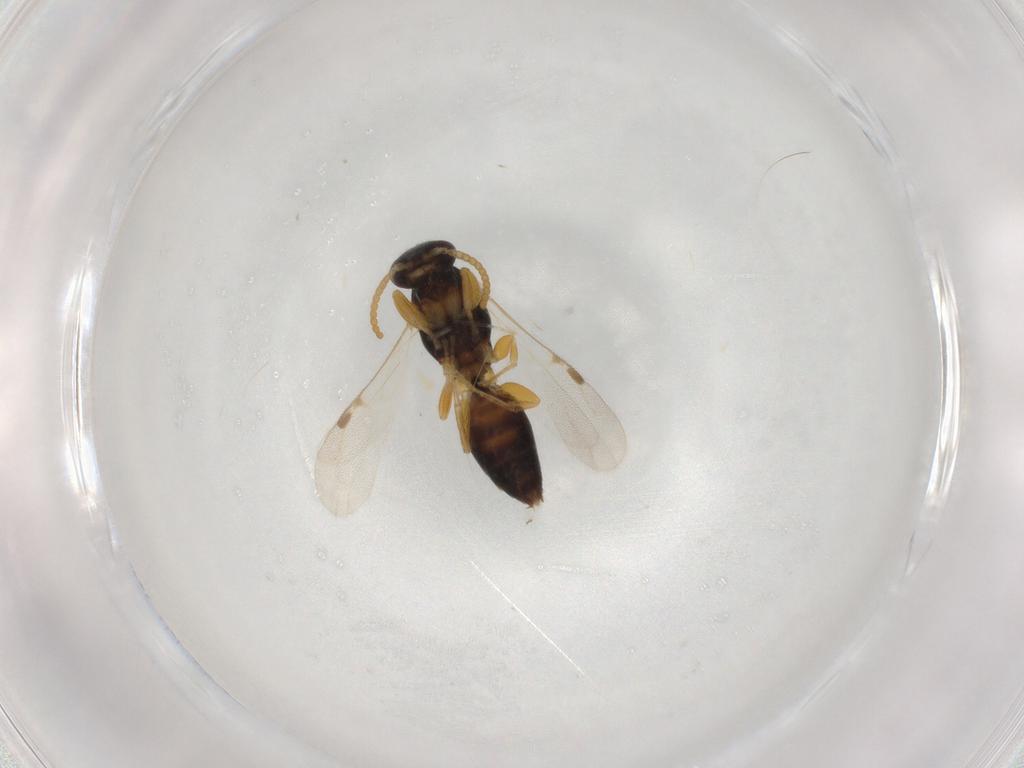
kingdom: Animalia
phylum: Arthropoda
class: Insecta
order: Hymenoptera
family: Bethylidae
